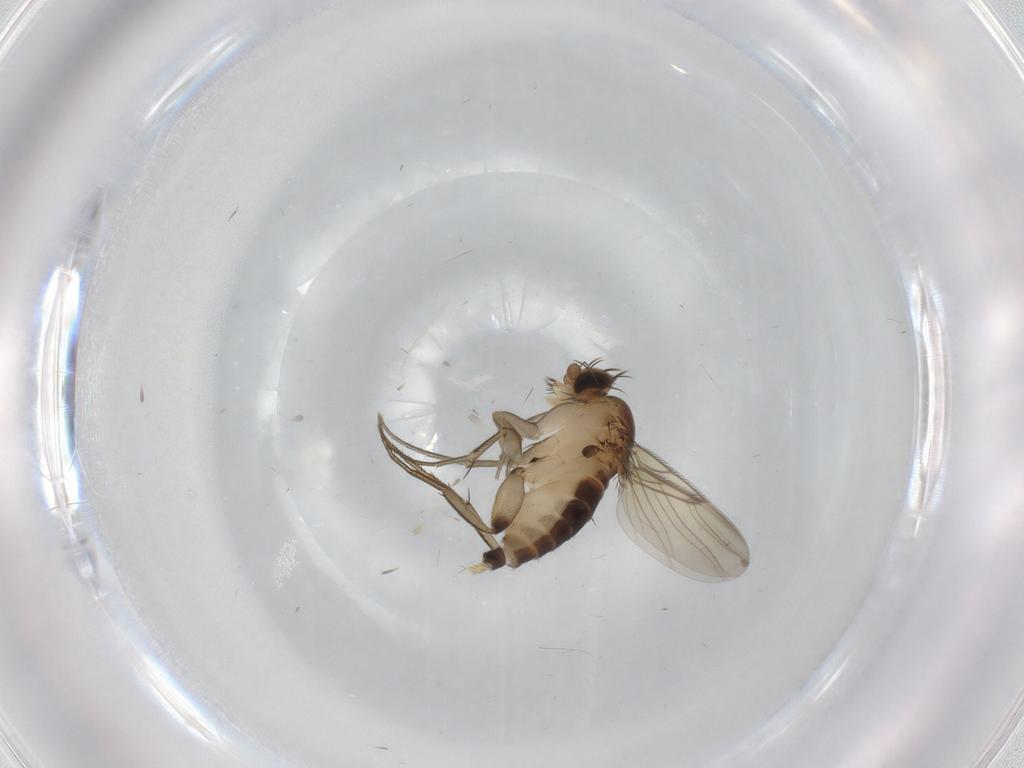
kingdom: Animalia
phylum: Arthropoda
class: Insecta
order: Diptera
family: Phoridae
